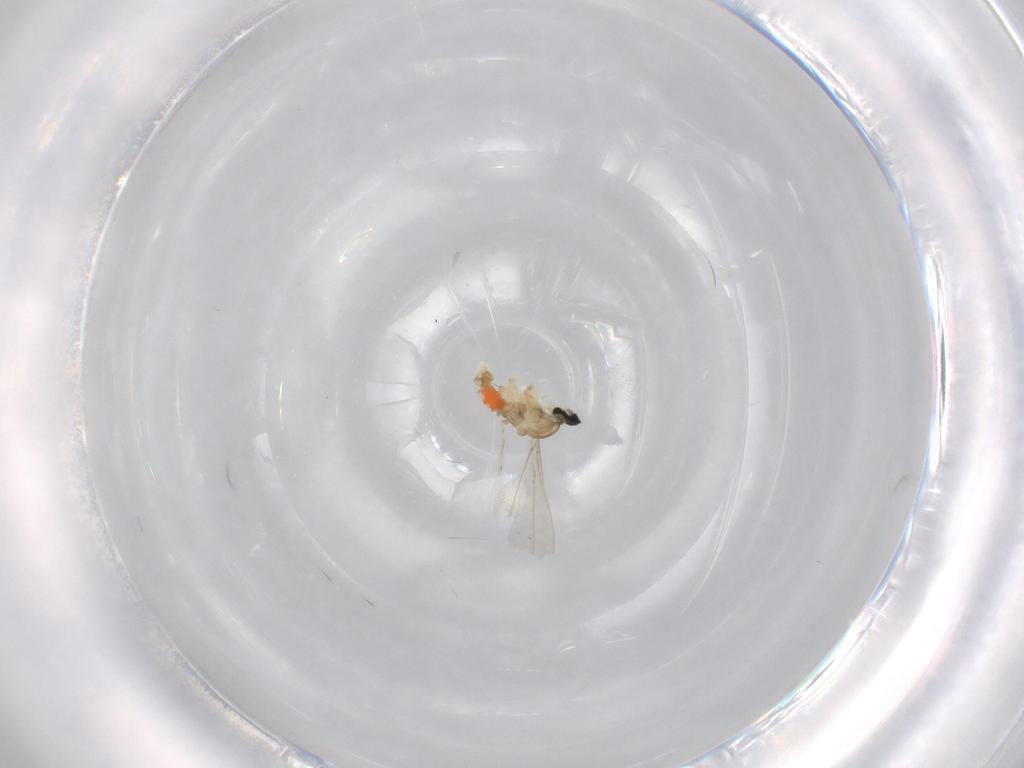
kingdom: Animalia
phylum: Arthropoda
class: Insecta
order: Diptera
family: Cecidomyiidae
